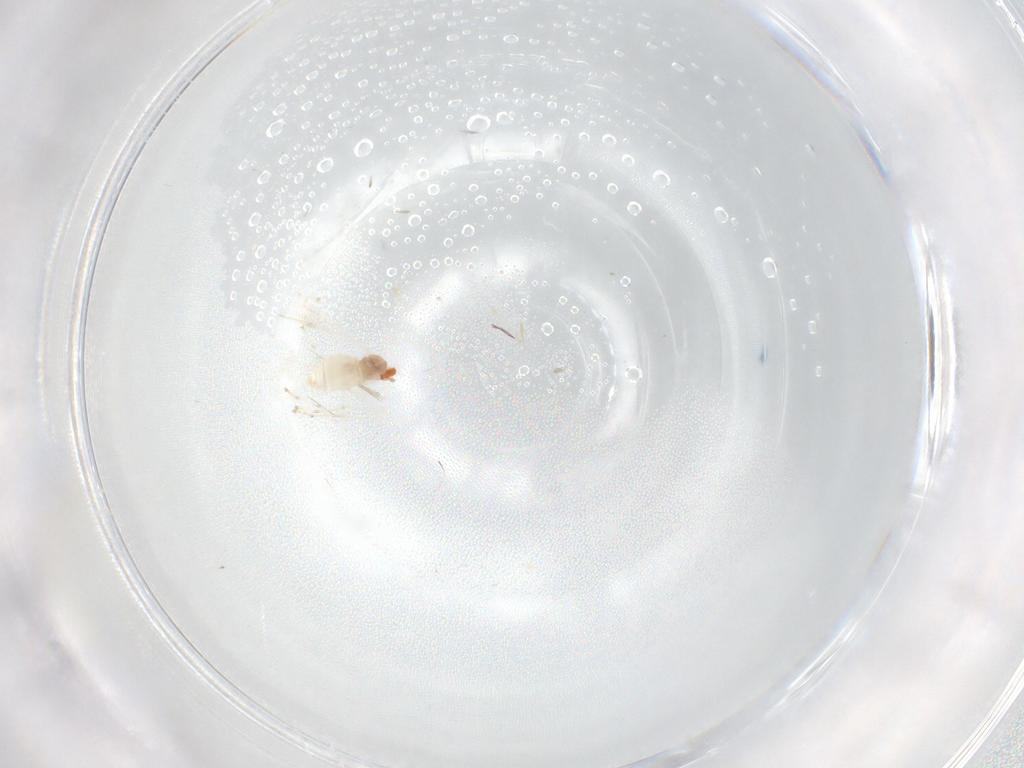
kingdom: Animalia
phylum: Arthropoda
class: Insecta
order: Diptera
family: Cecidomyiidae
